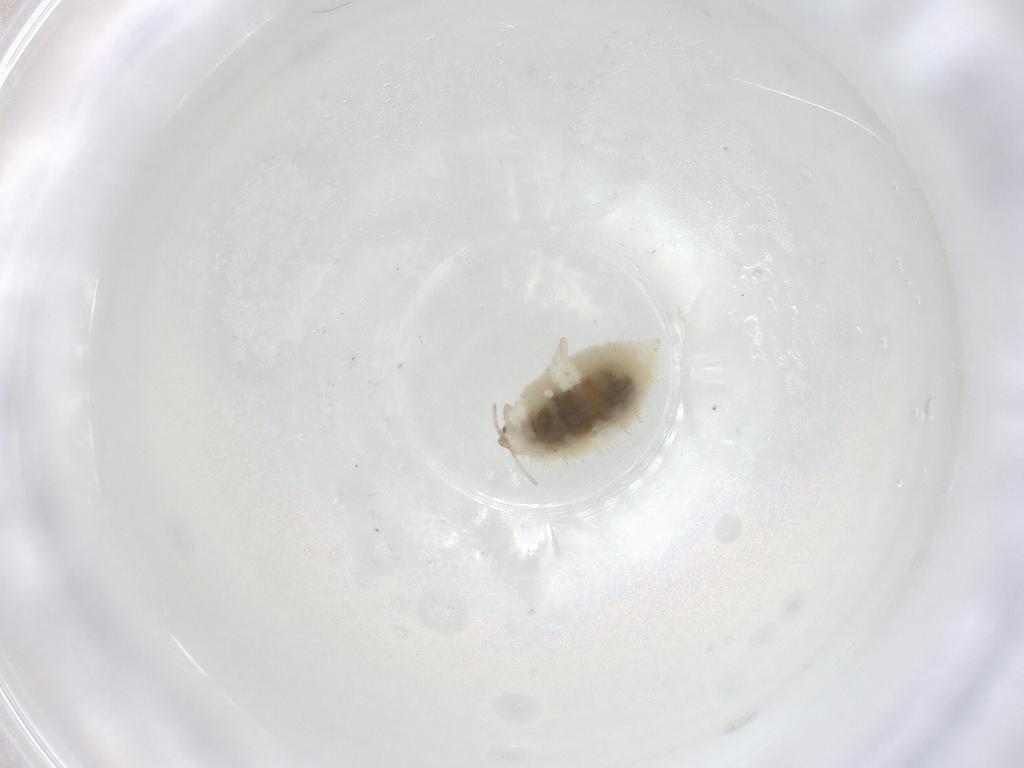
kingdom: Animalia
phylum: Arthropoda
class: Insecta
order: Neuroptera
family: Coniopterygidae
